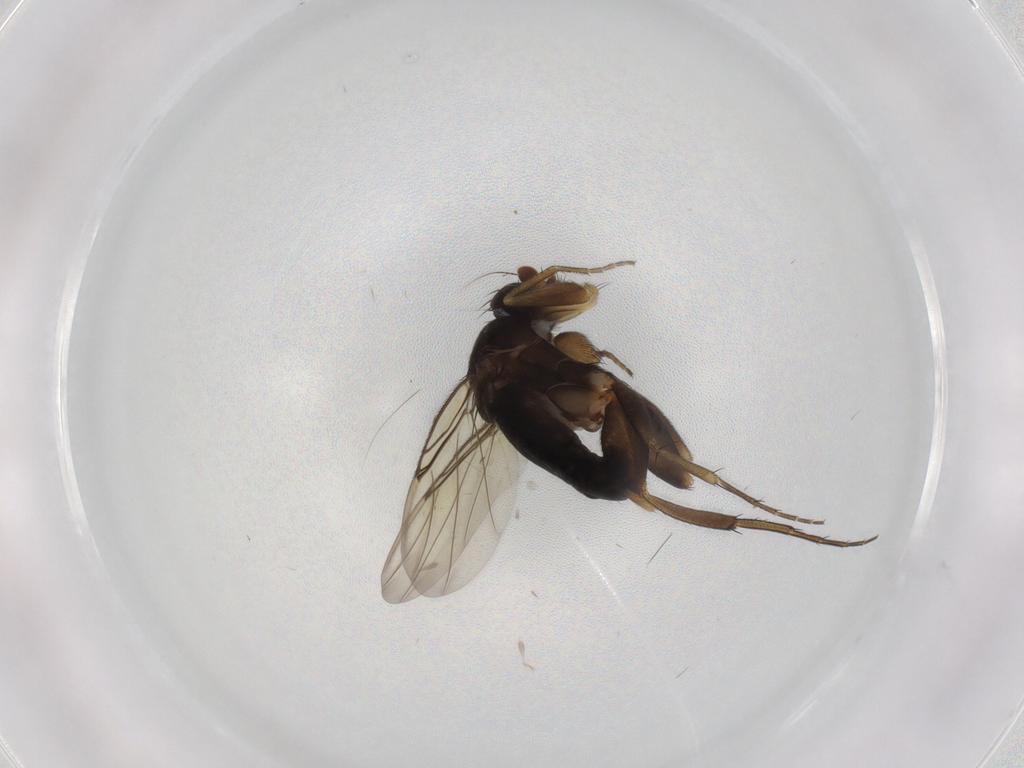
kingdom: Animalia
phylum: Arthropoda
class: Insecta
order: Diptera
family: Phoridae
